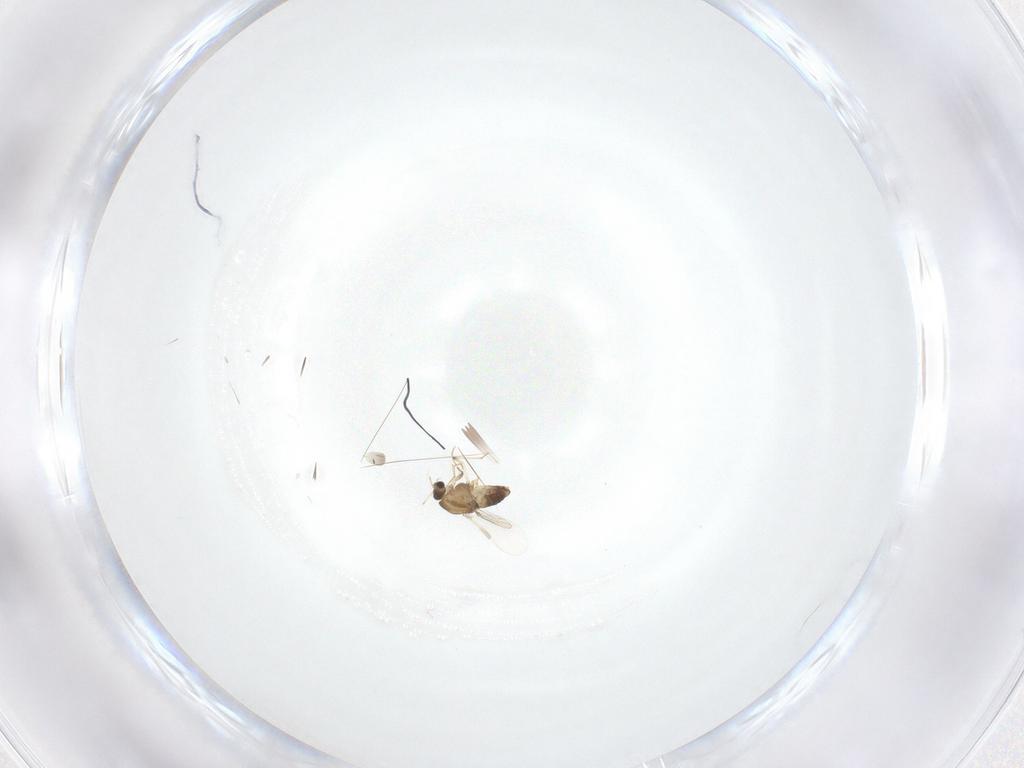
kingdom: Animalia
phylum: Arthropoda
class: Insecta
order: Diptera
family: Chironomidae
